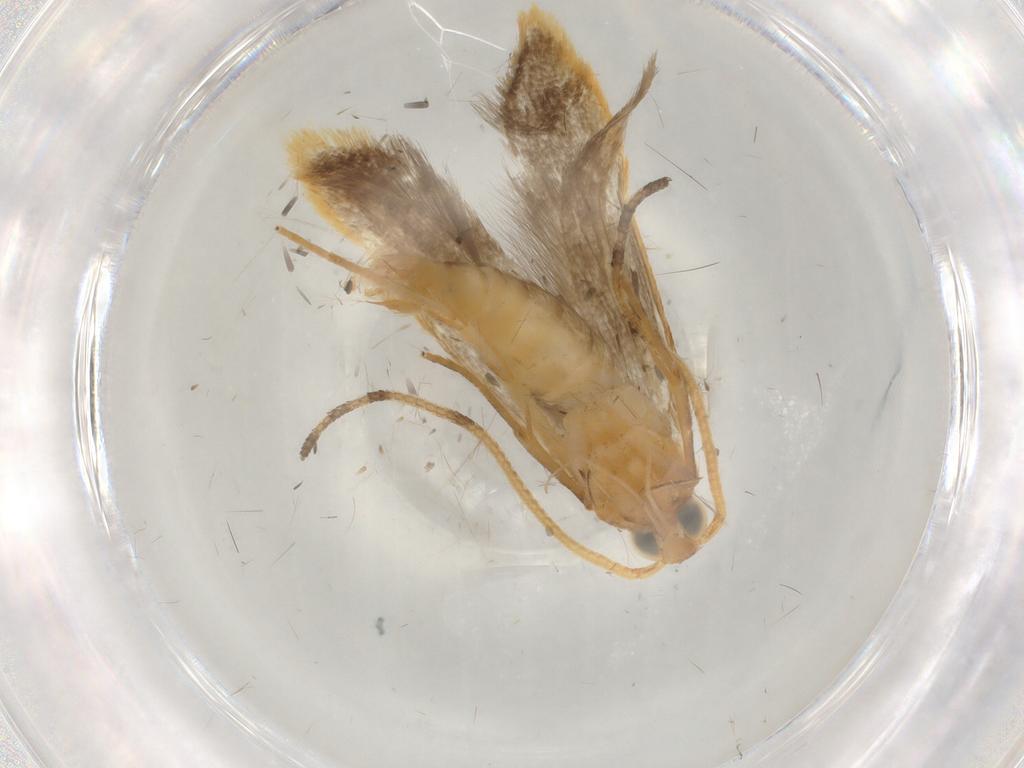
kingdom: Animalia
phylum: Arthropoda
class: Insecta
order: Lepidoptera
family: Elachistidae
